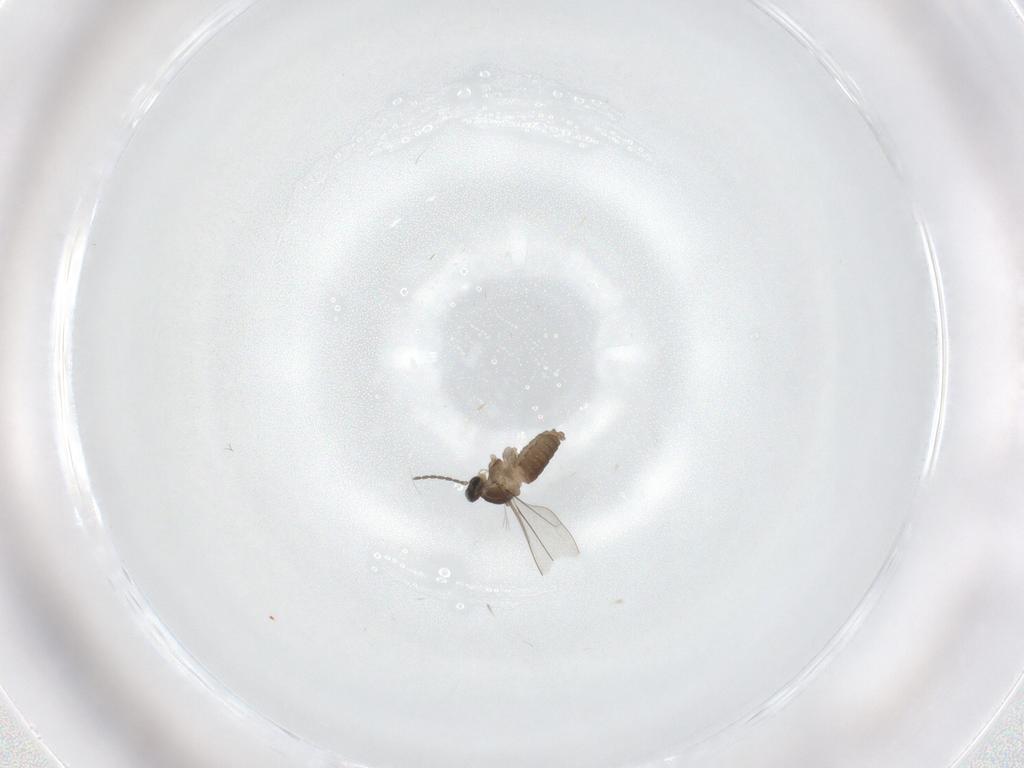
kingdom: Animalia
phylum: Arthropoda
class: Insecta
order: Diptera
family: Cecidomyiidae
